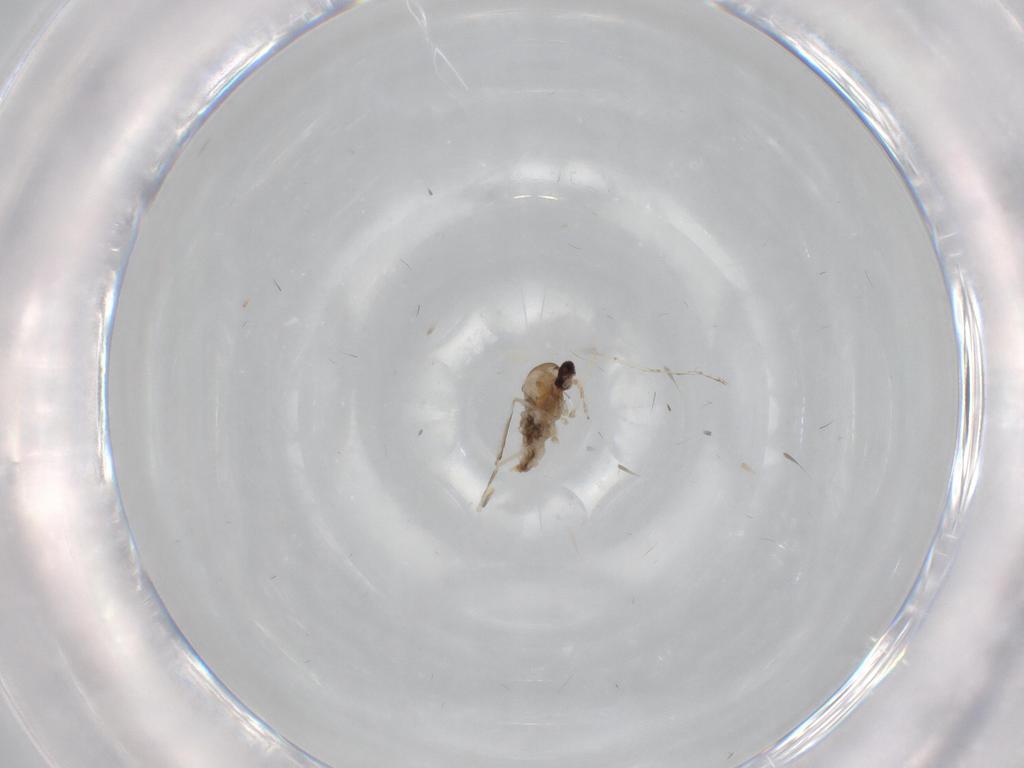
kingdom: Animalia
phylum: Arthropoda
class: Insecta
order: Diptera
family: Cecidomyiidae
